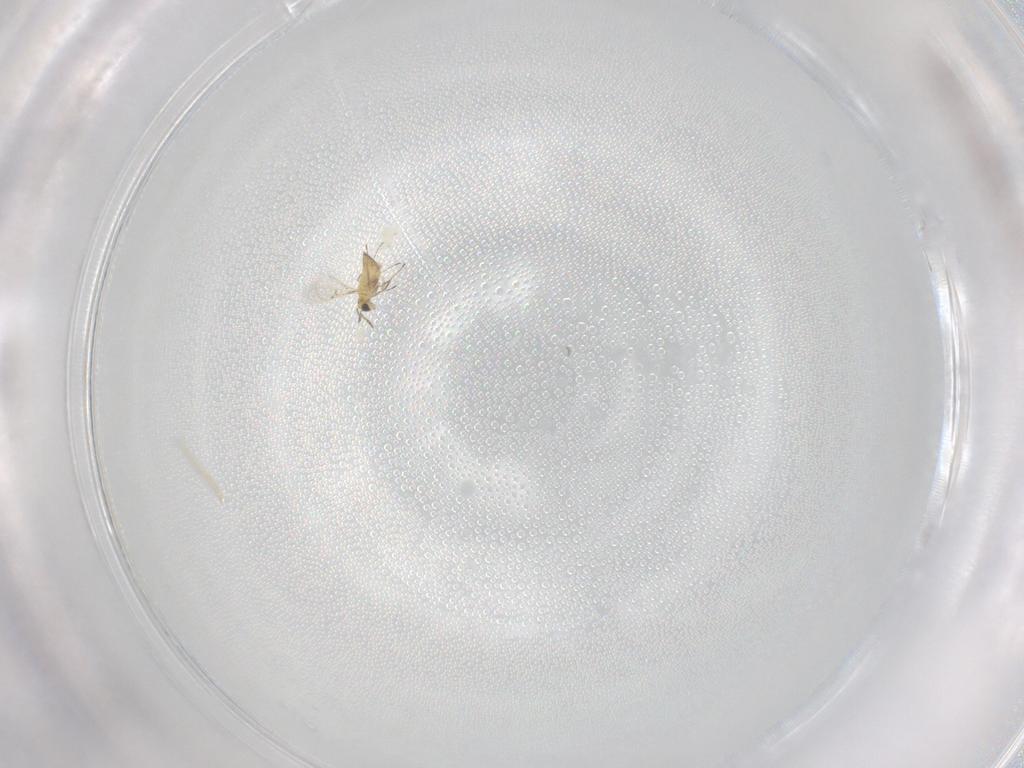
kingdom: Animalia
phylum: Arthropoda
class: Insecta
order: Hymenoptera
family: Trichogrammatidae
